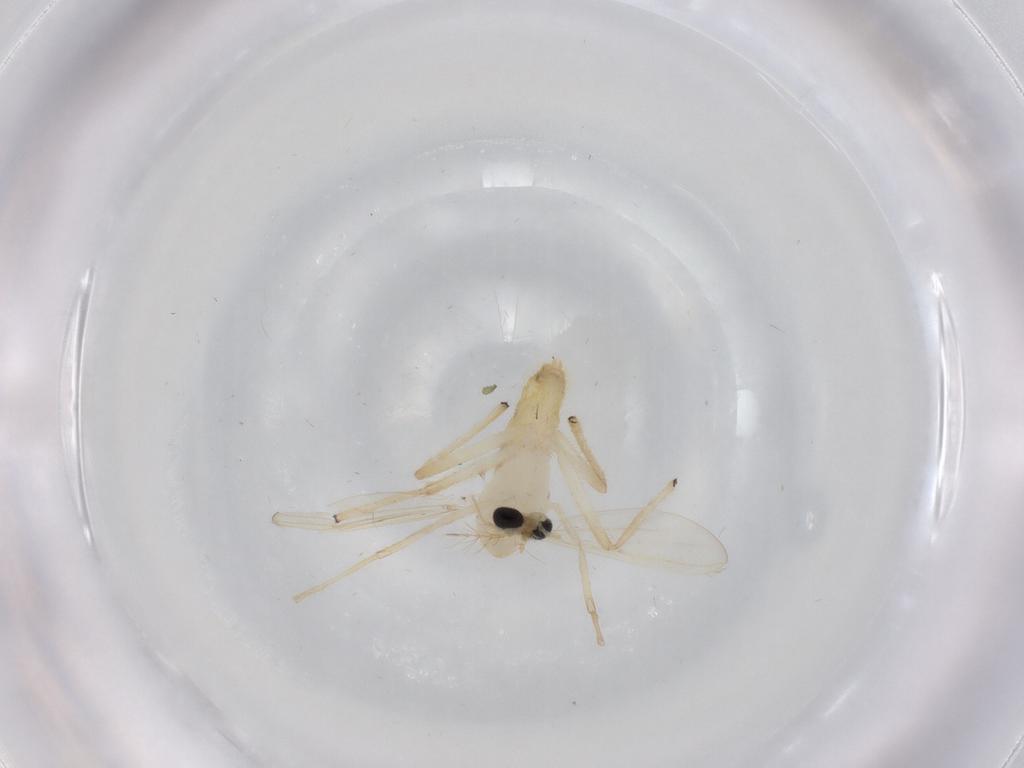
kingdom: Animalia
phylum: Arthropoda
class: Insecta
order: Diptera
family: Chironomidae
